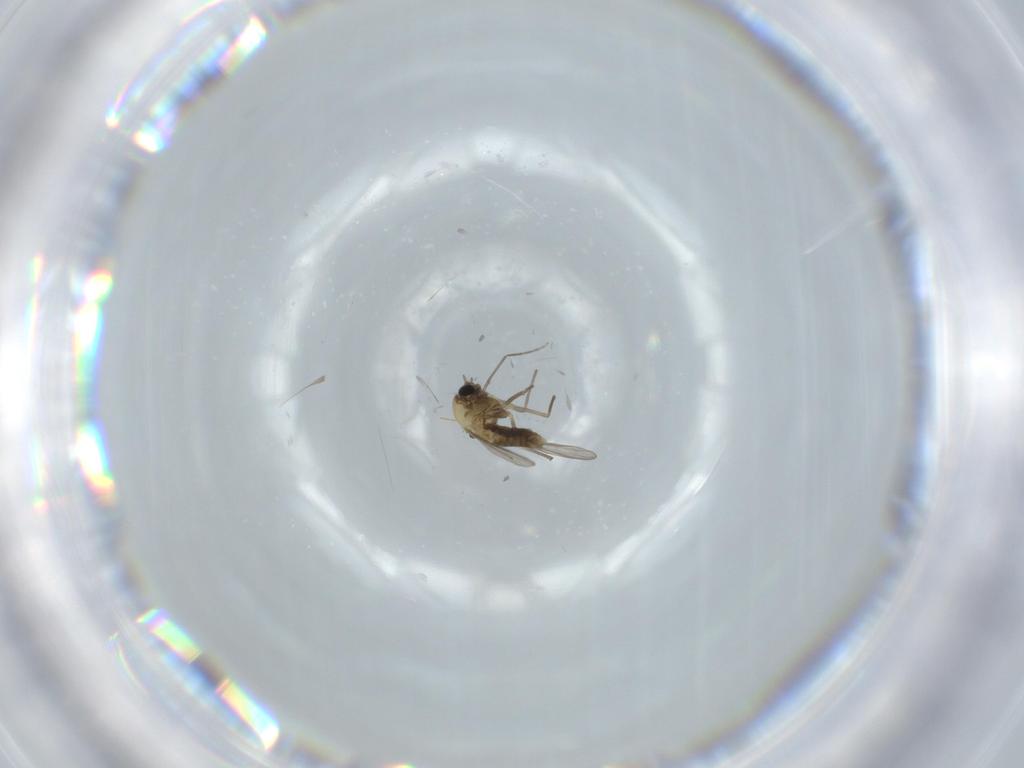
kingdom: Animalia
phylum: Arthropoda
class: Insecta
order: Diptera
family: Chironomidae
